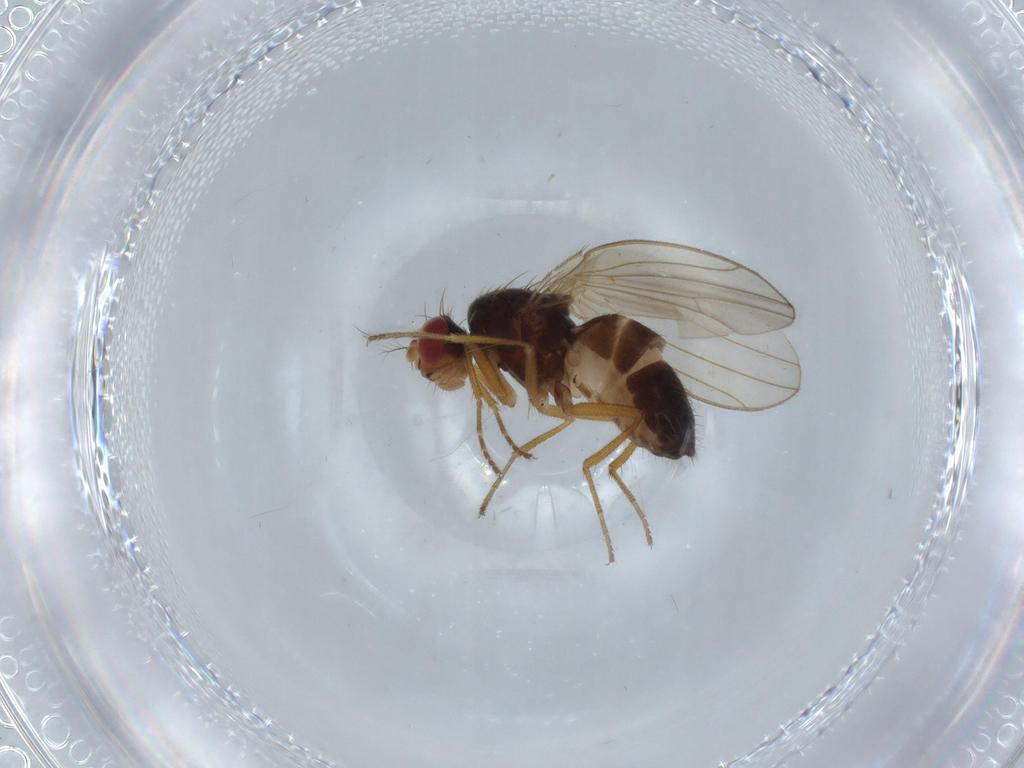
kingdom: Animalia
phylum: Arthropoda
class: Insecta
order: Diptera
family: Drosophilidae
